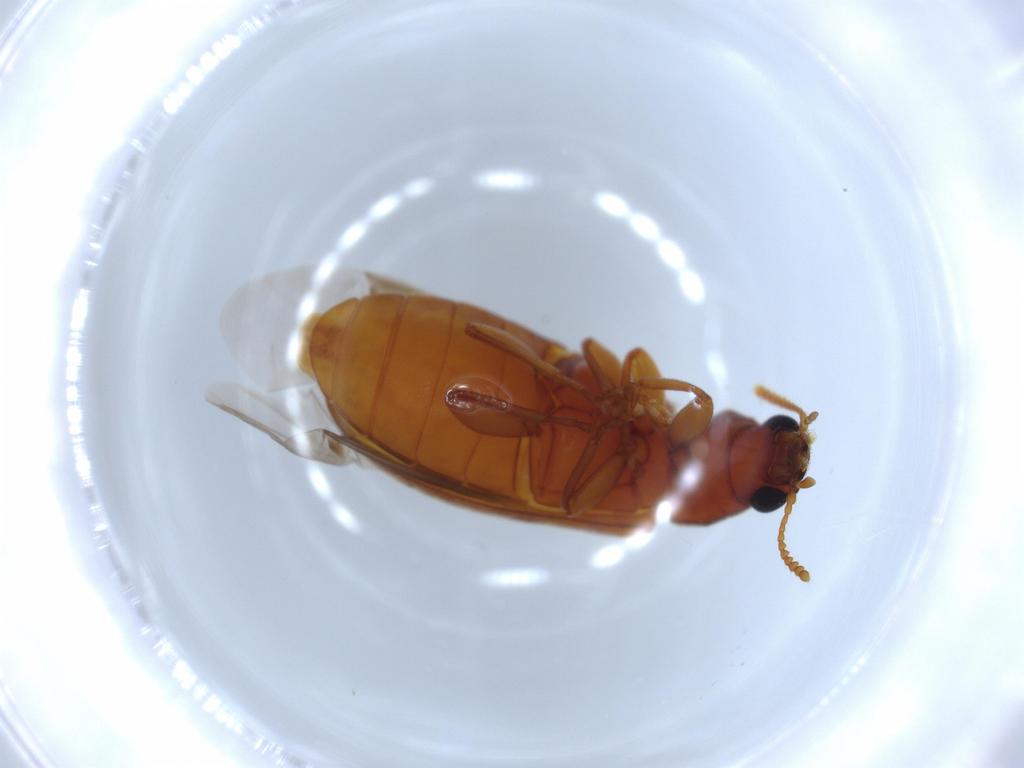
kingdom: Animalia
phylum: Arthropoda
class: Insecta
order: Coleoptera
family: Mycteridae
